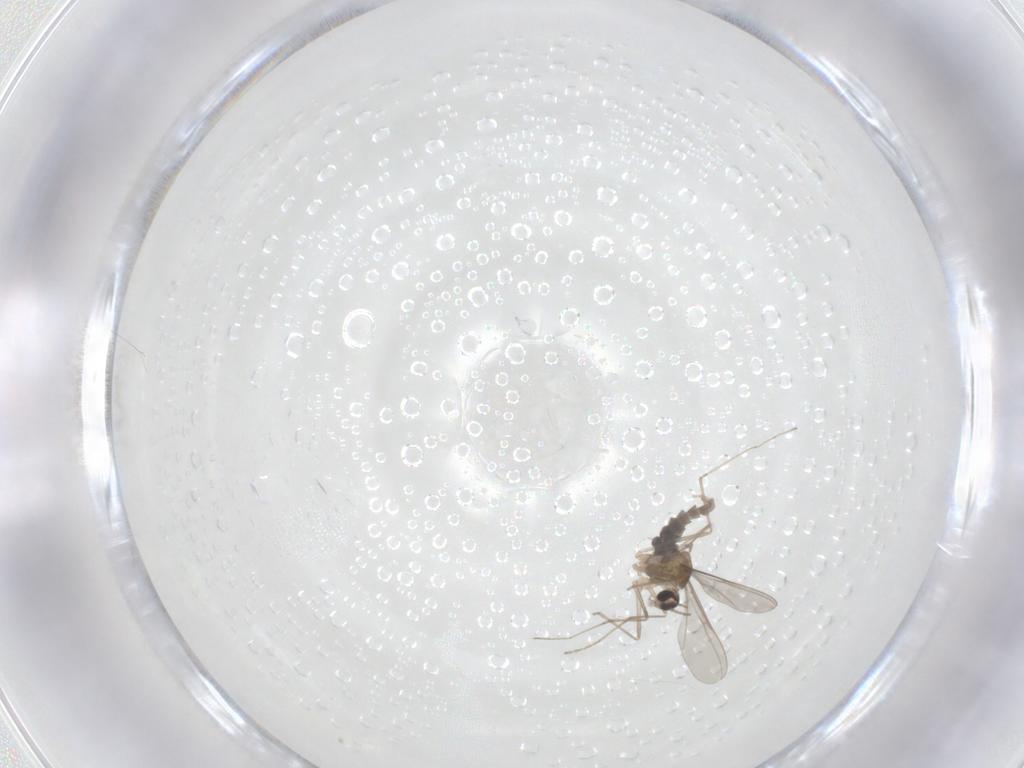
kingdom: Animalia
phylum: Arthropoda
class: Insecta
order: Diptera
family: Cecidomyiidae
